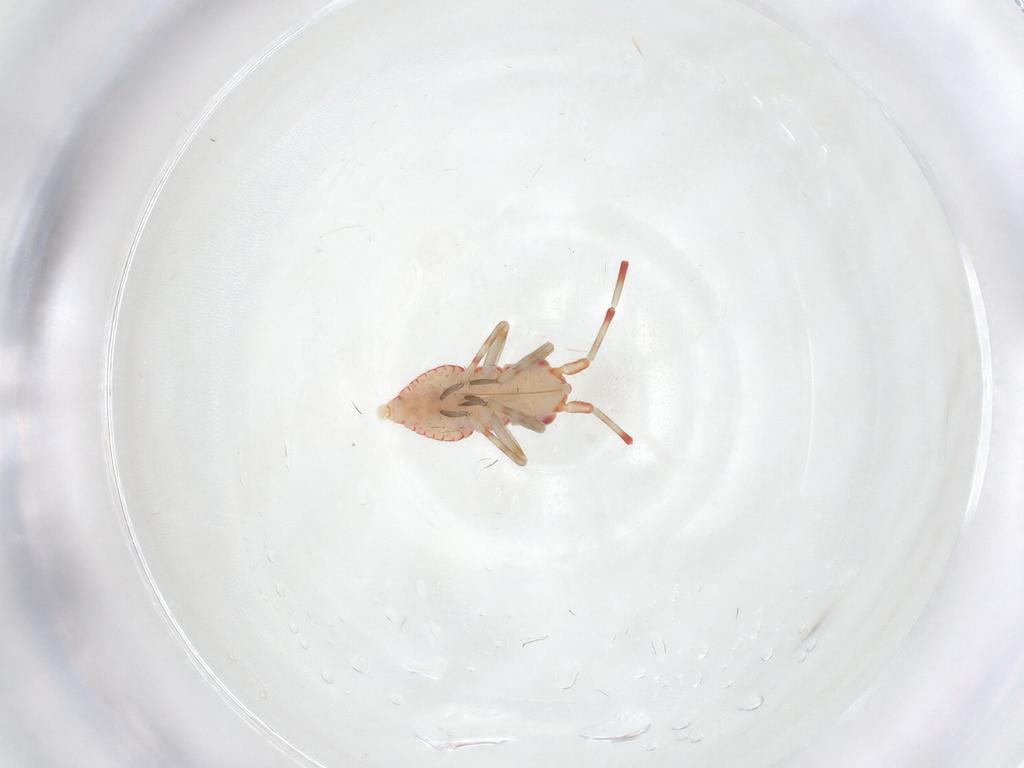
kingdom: Animalia
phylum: Arthropoda
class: Insecta
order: Hemiptera
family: Miridae
